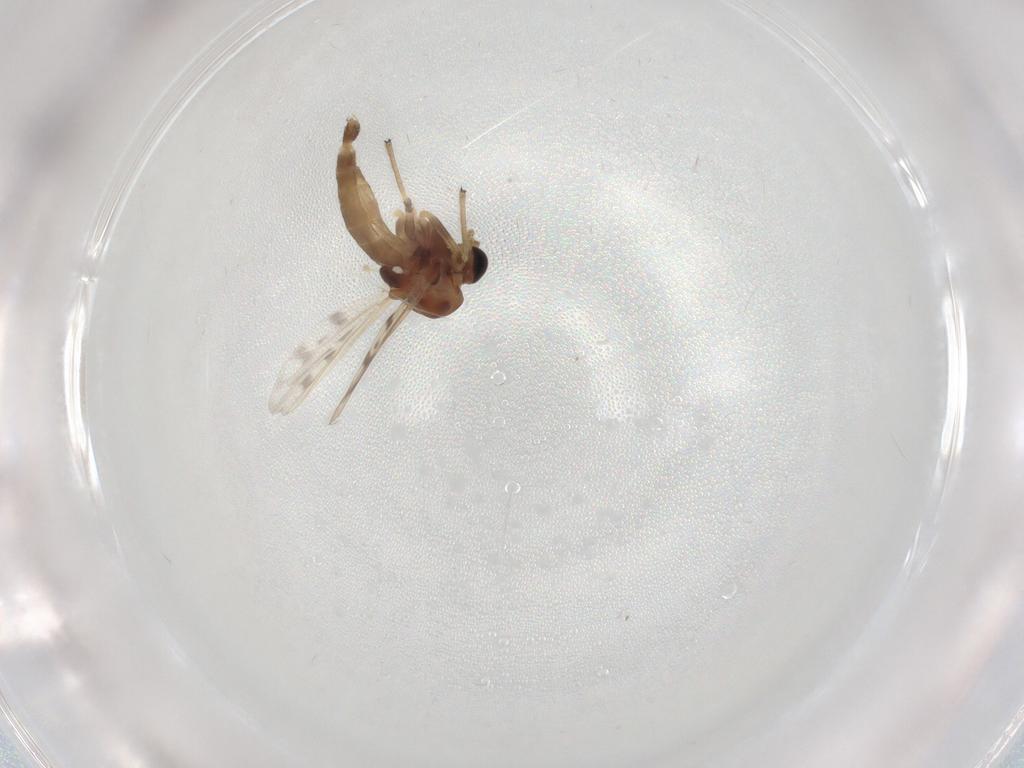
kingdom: Animalia
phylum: Arthropoda
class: Insecta
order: Diptera
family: Chironomidae
